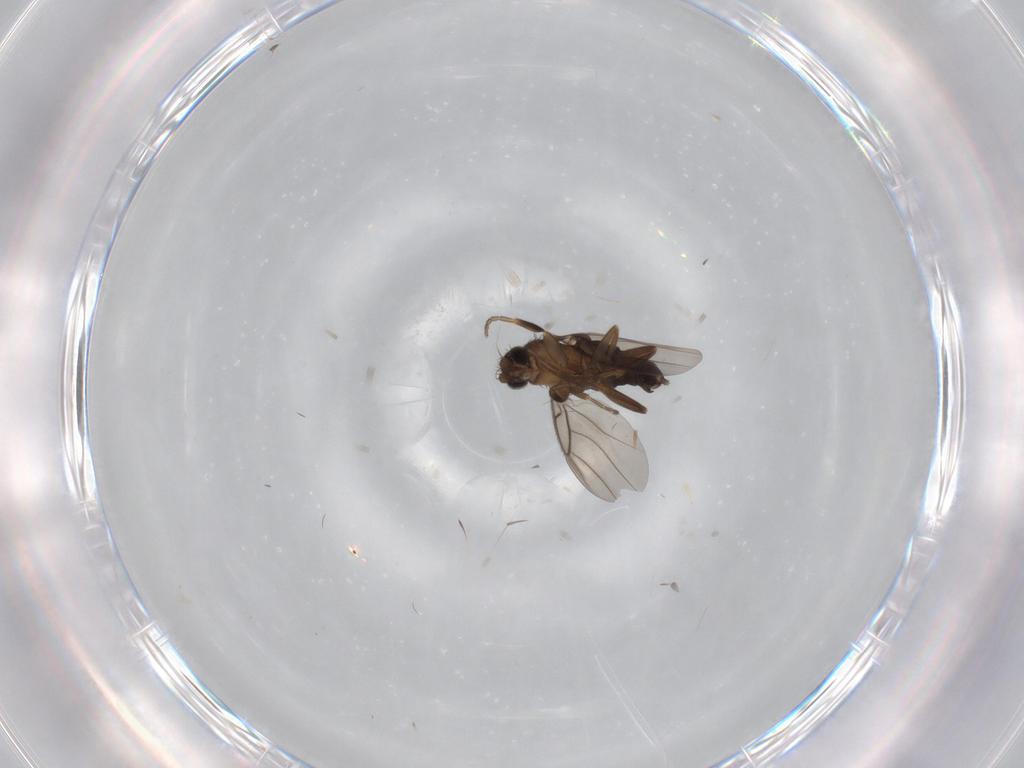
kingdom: Animalia
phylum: Arthropoda
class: Insecta
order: Diptera
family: Phoridae
